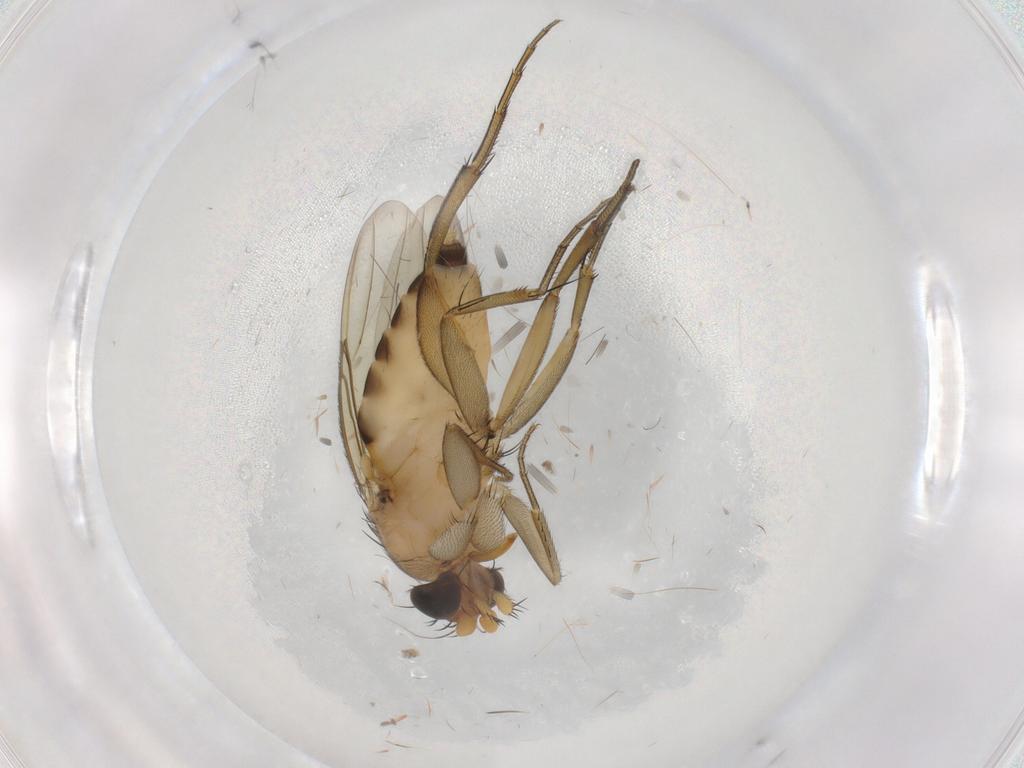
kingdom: Animalia
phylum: Arthropoda
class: Insecta
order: Diptera
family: Phoridae
